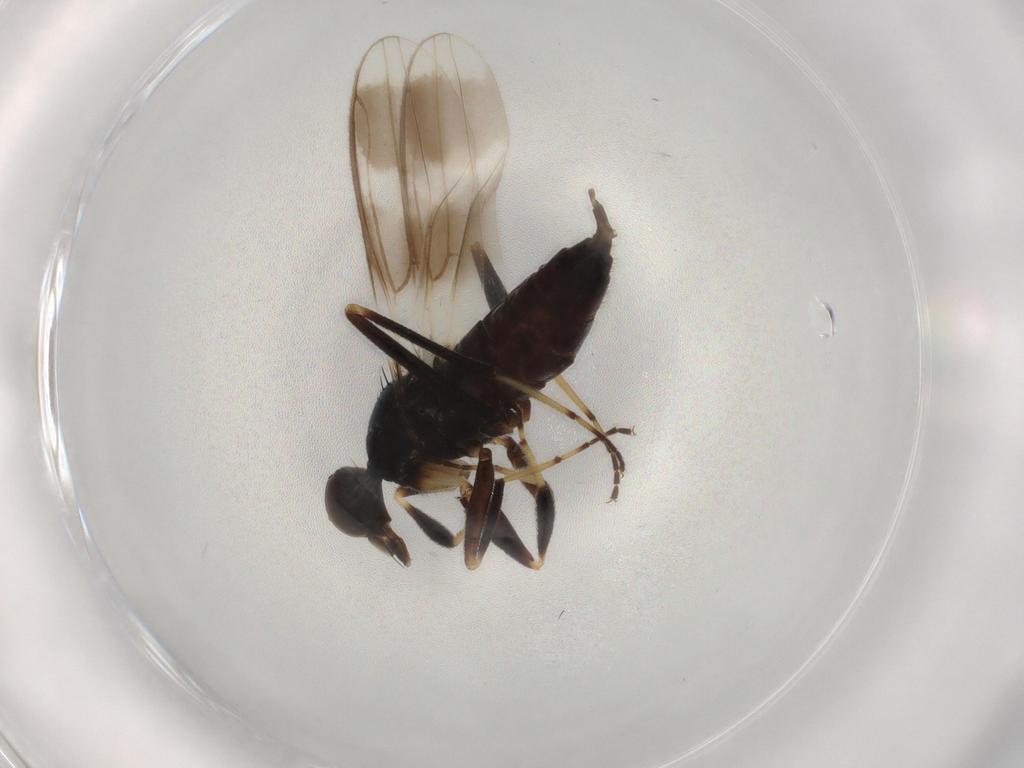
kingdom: Animalia
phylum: Arthropoda
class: Insecta
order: Diptera
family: Hybotidae
